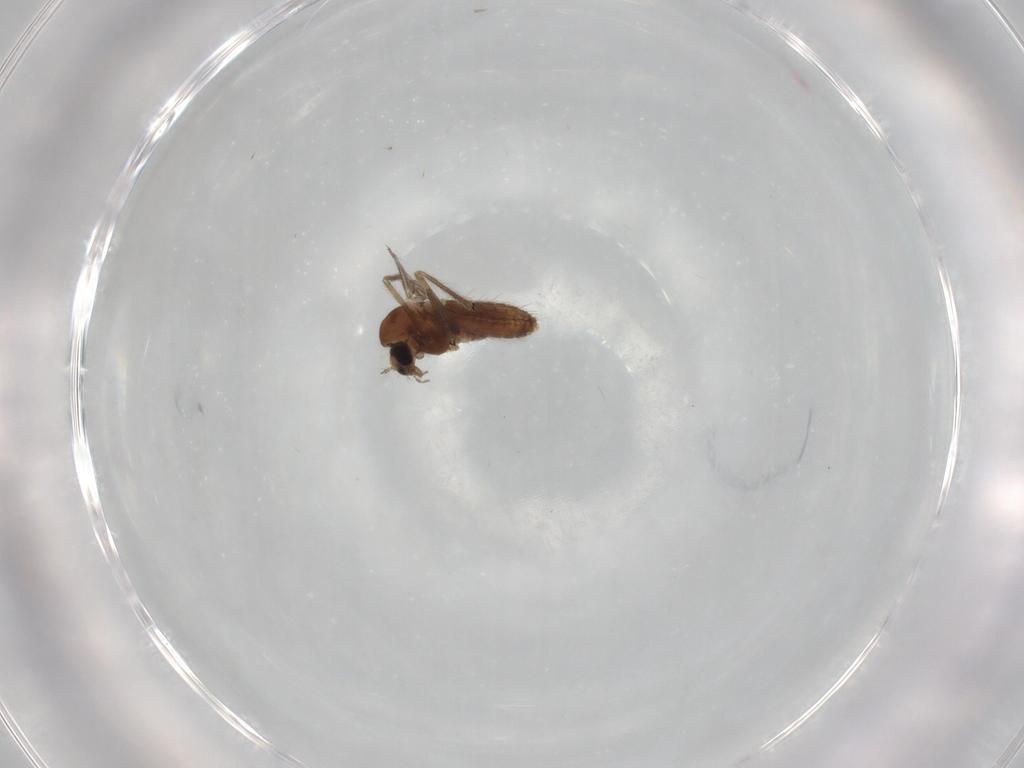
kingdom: Animalia
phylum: Arthropoda
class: Insecta
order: Diptera
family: Chironomidae
